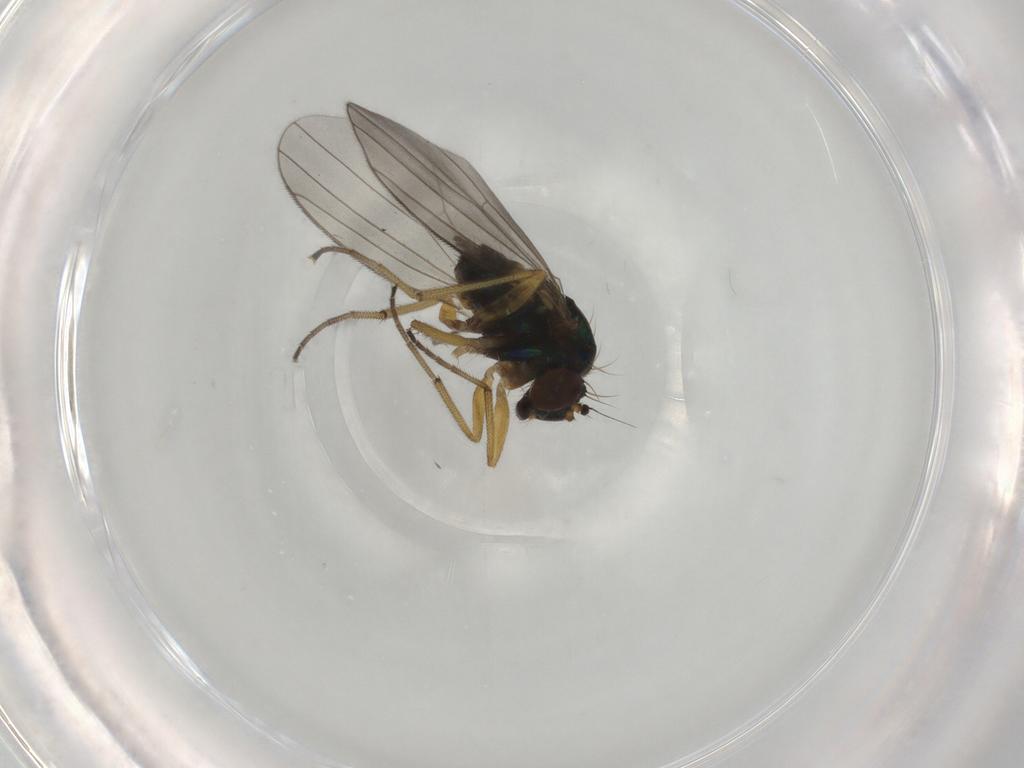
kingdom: Animalia
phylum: Arthropoda
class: Insecta
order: Diptera
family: Dolichopodidae
